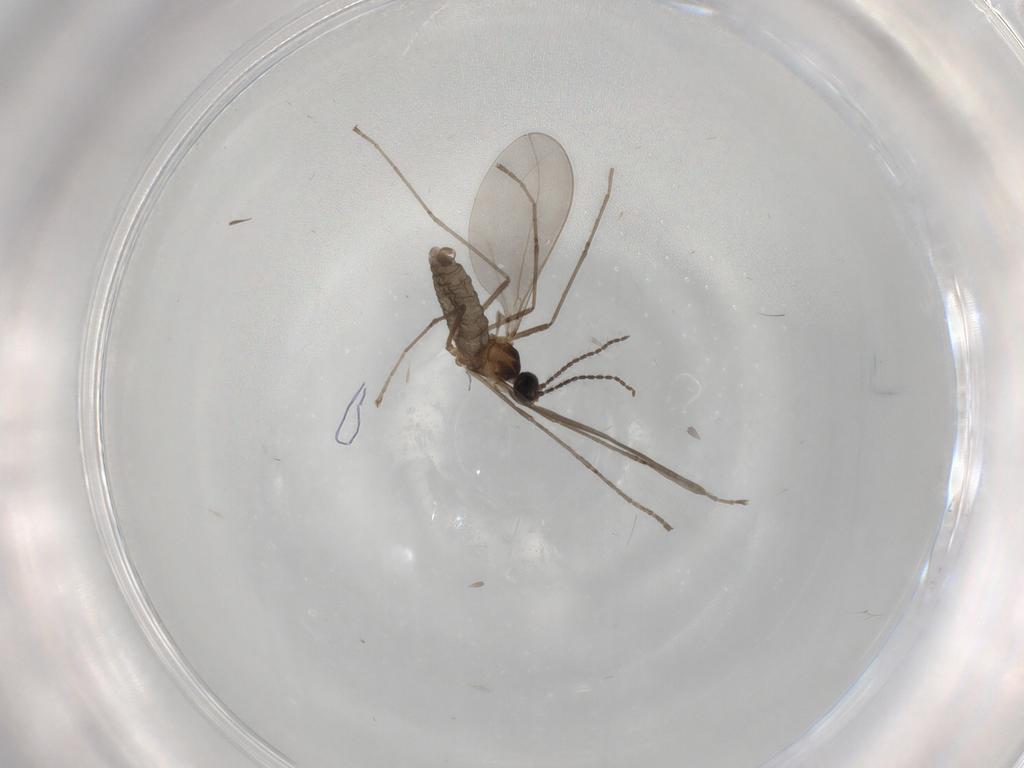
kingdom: Animalia
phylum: Arthropoda
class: Insecta
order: Diptera
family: Cecidomyiidae
